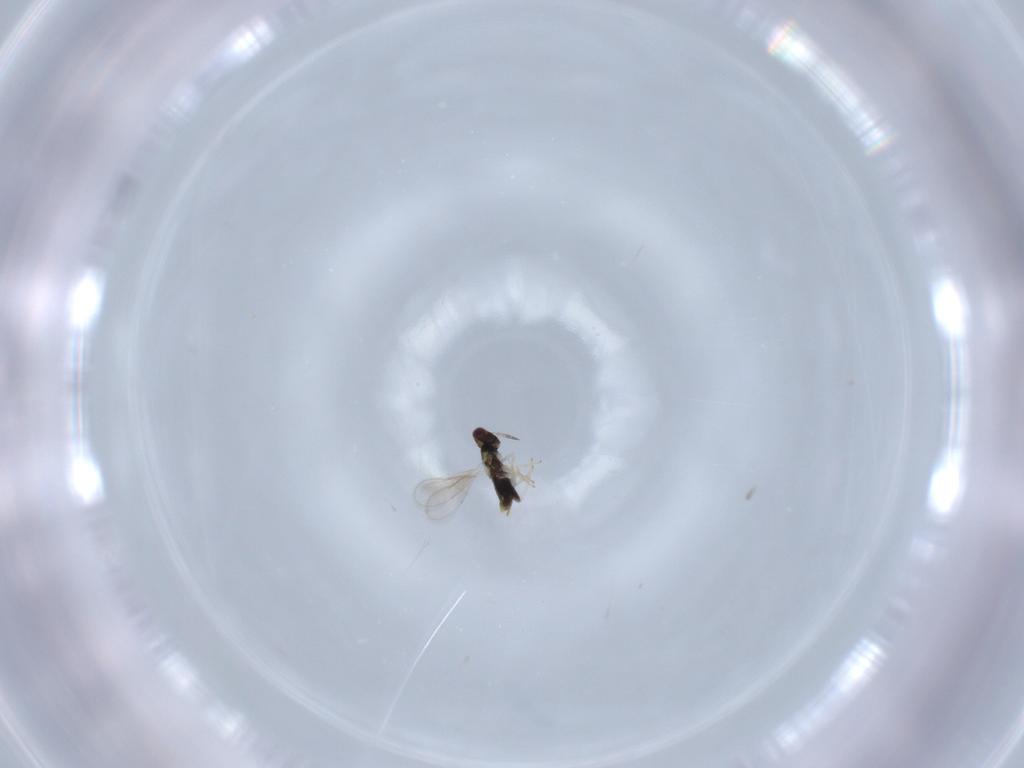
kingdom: Animalia
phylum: Arthropoda
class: Insecta
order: Hymenoptera
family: Aphelinidae
